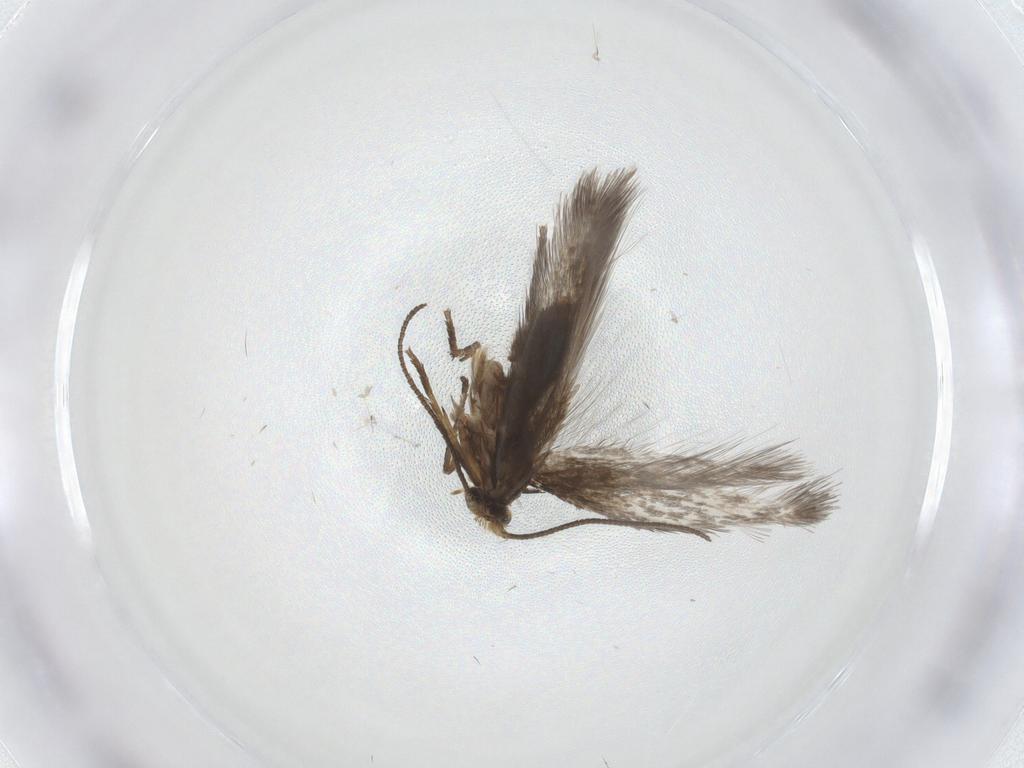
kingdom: Animalia
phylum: Arthropoda
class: Insecta
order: Lepidoptera
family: Nepticulidae
